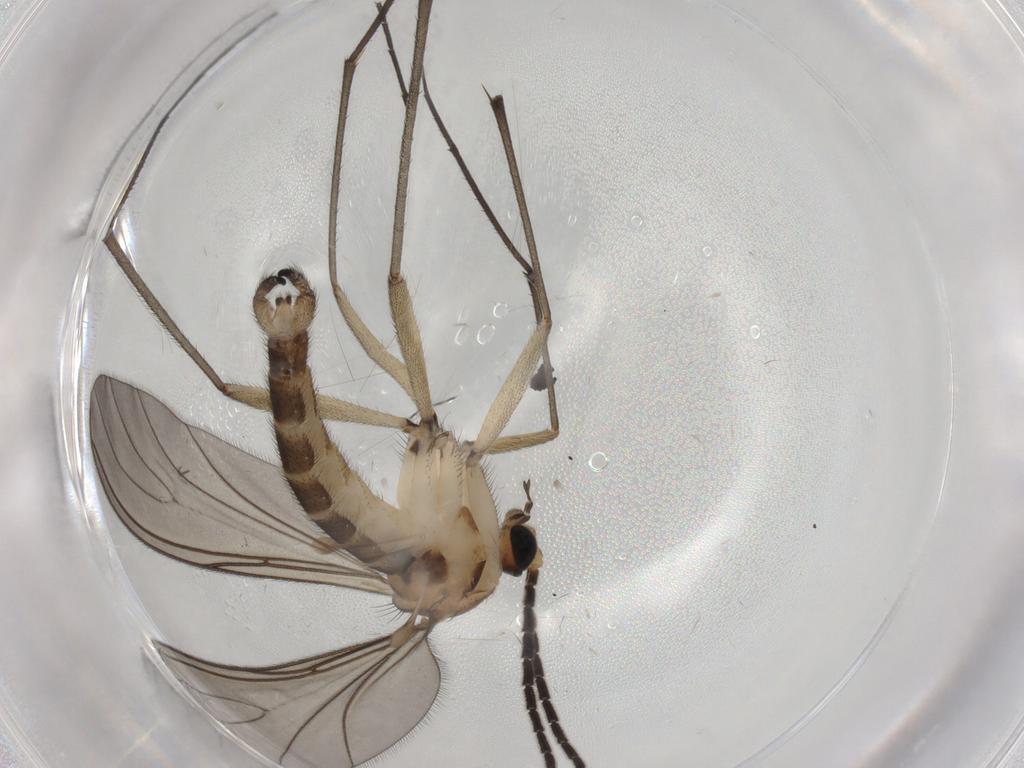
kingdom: Animalia
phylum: Arthropoda
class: Insecta
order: Diptera
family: Sciaridae
